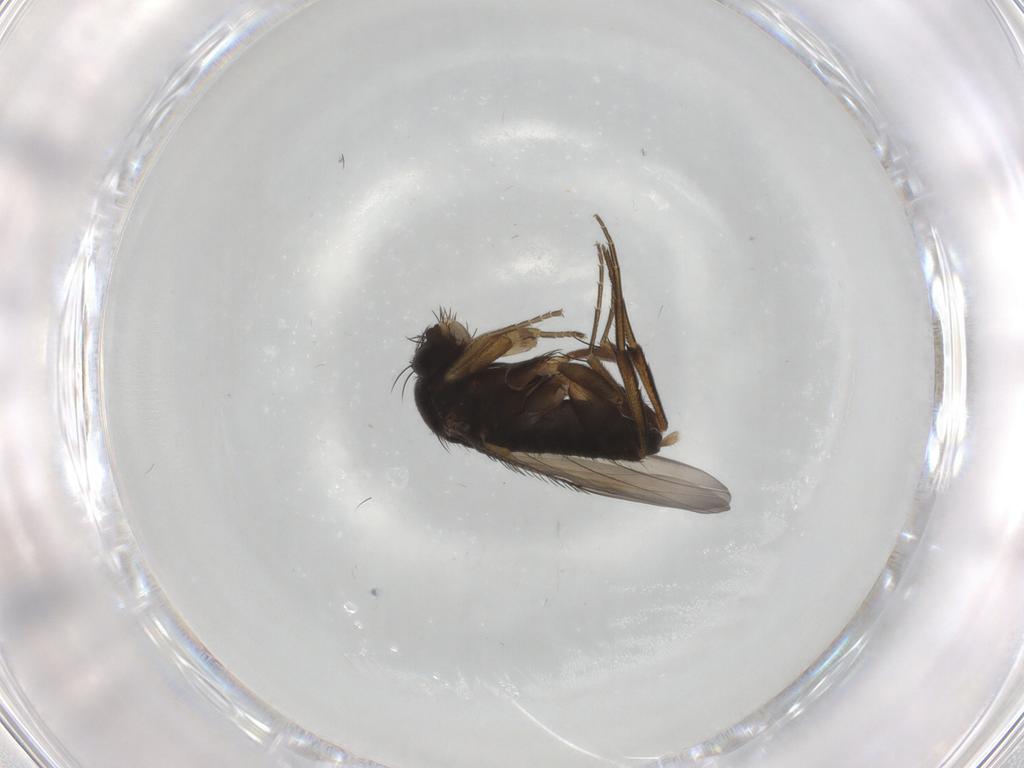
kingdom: Animalia
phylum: Arthropoda
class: Insecta
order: Diptera
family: Phoridae
